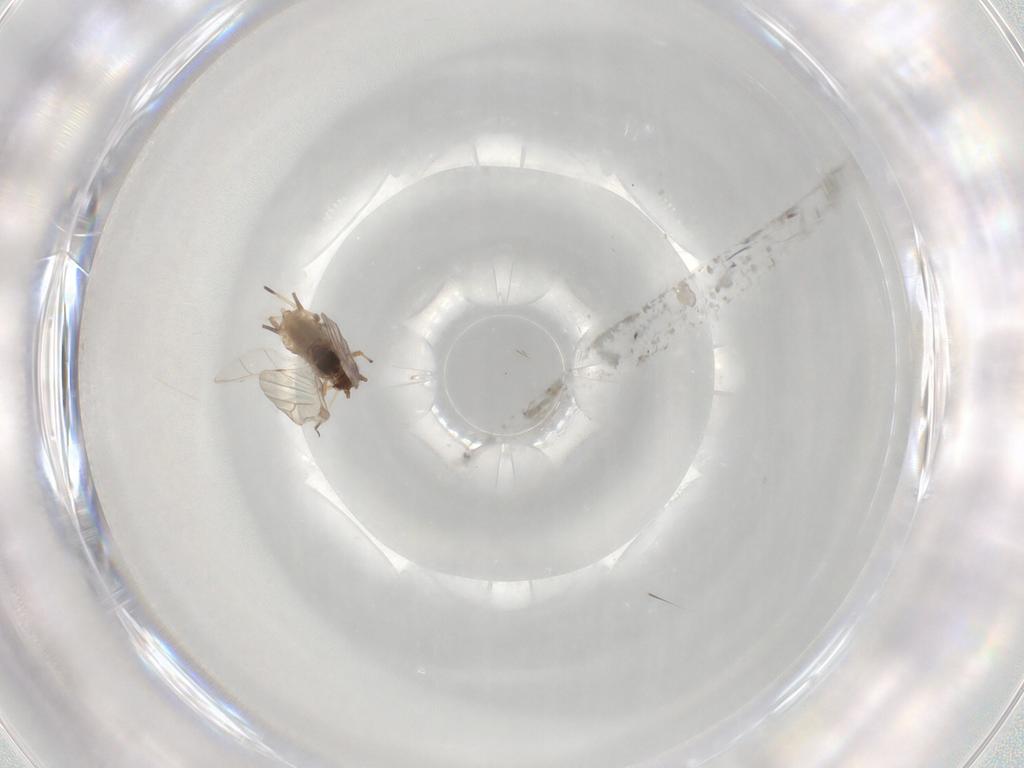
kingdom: Animalia
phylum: Arthropoda
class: Insecta
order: Hemiptera
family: Aphididae
